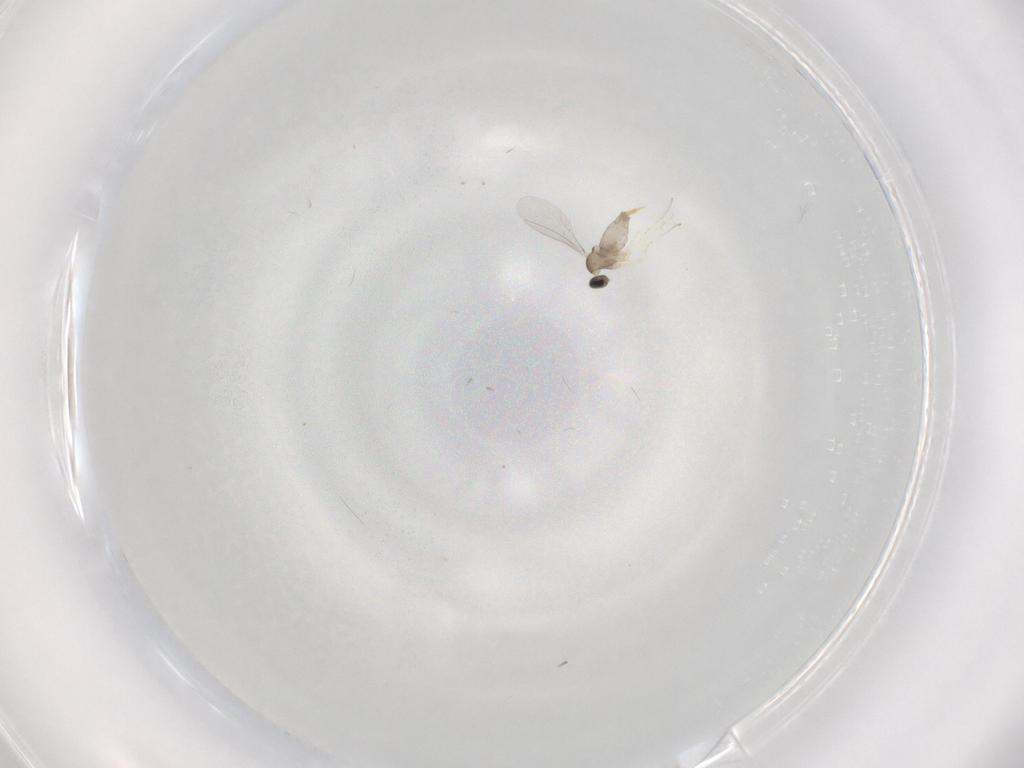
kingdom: Animalia
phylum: Arthropoda
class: Insecta
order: Diptera
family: Cecidomyiidae
